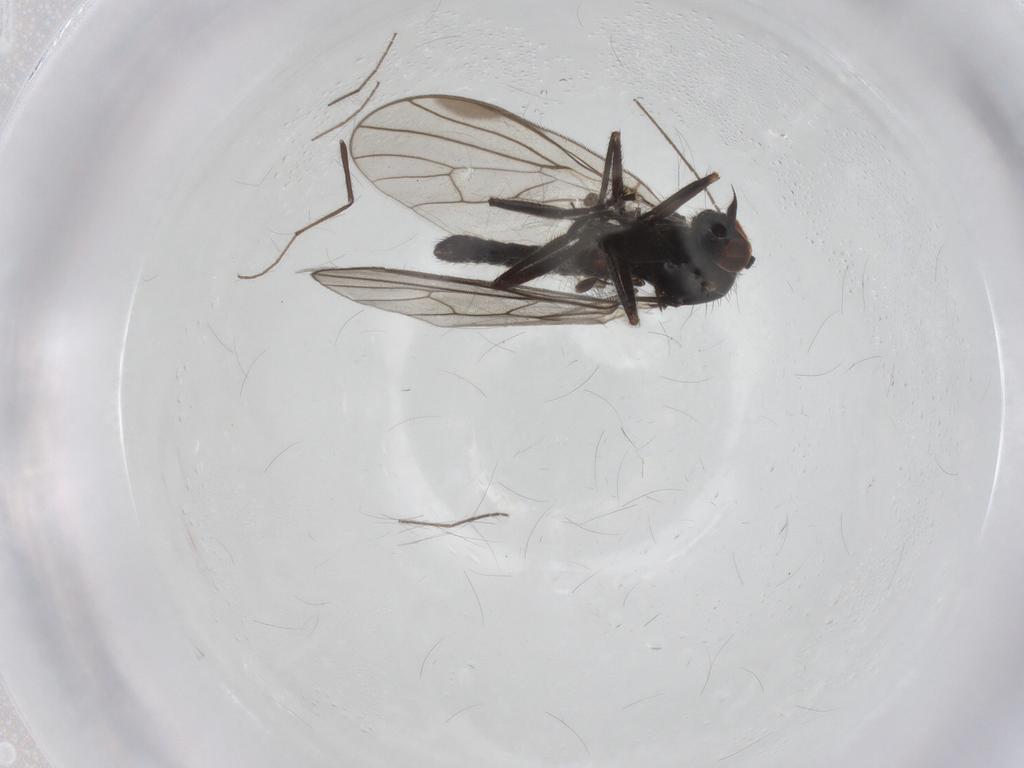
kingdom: Animalia
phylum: Arthropoda
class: Insecta
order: Diptera
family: Hybotidae
